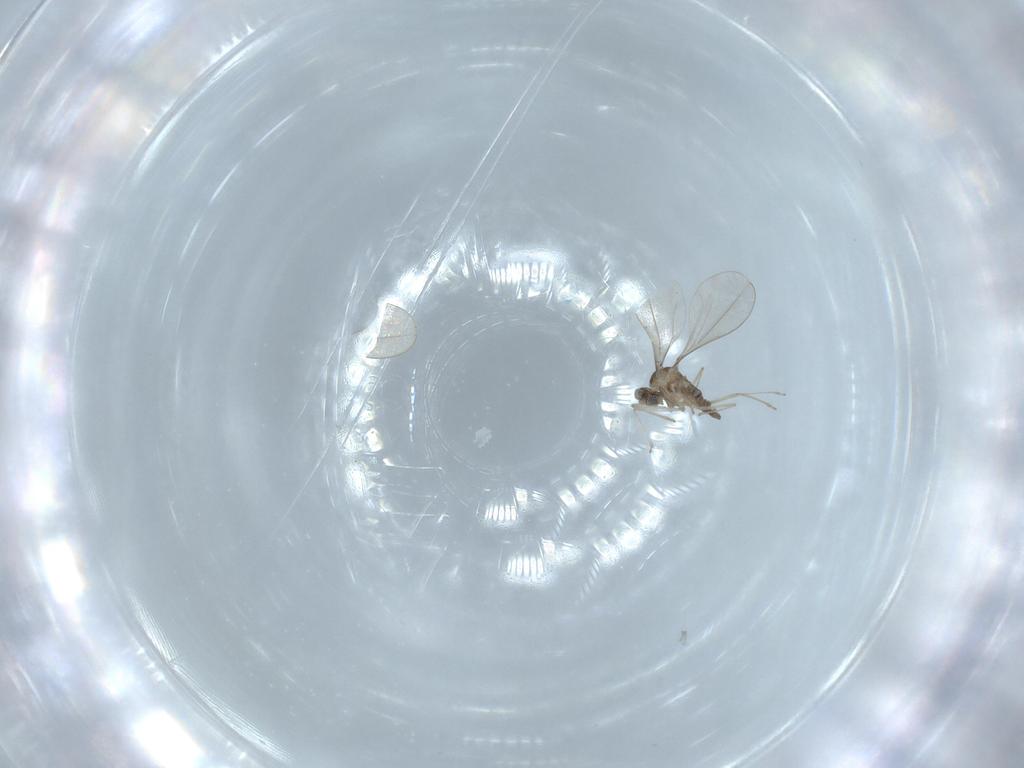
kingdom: Animalia
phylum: Arthropoda
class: Insecta
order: Diptera
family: Cecidomyiidae
